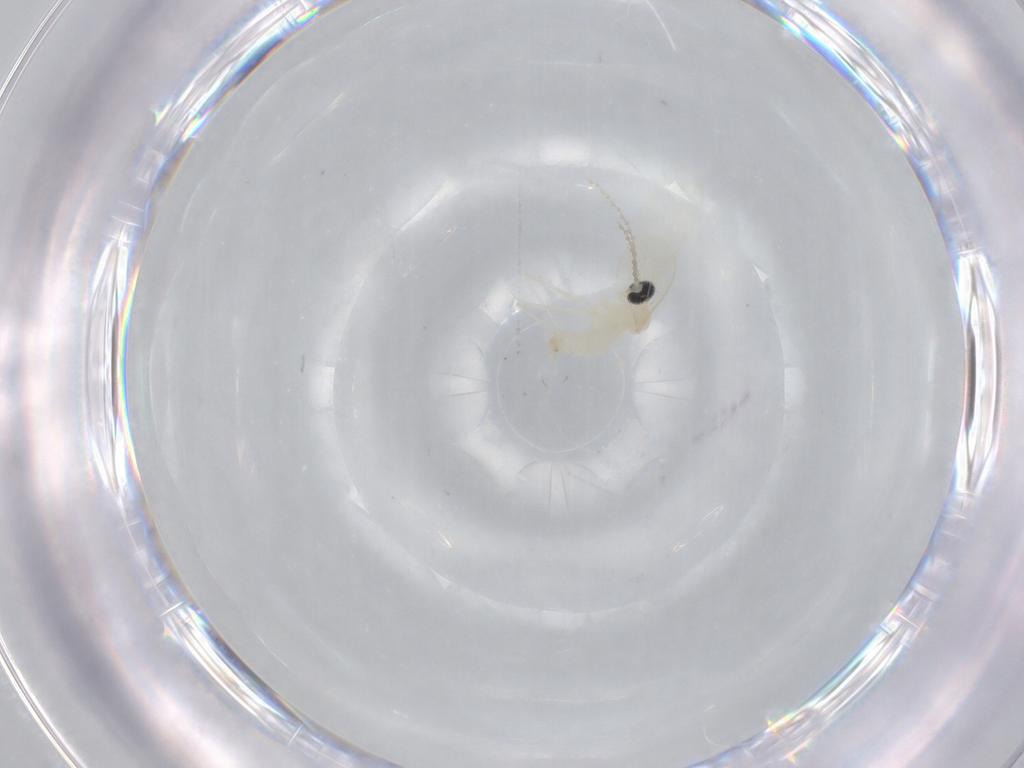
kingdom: Animalia
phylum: Arthropoda
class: Insecta
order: Diptera
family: Cecidomyiidae
